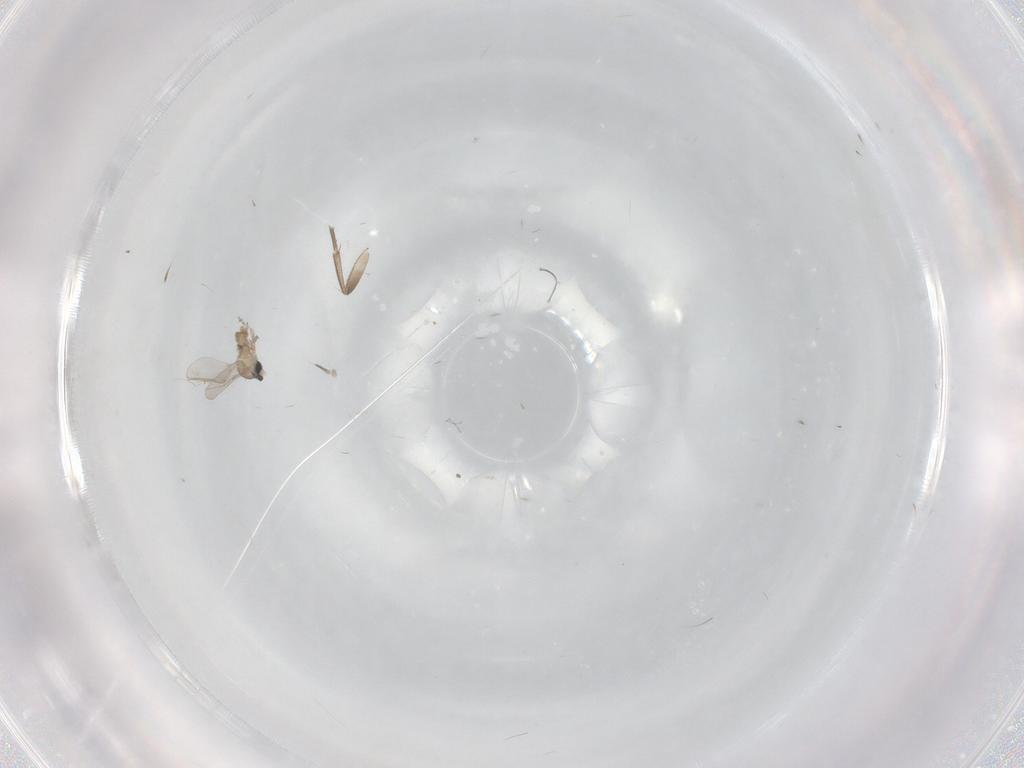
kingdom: Animalia
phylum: Arthropoda
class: Insecta
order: Diptera
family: Cecidomyiidae
